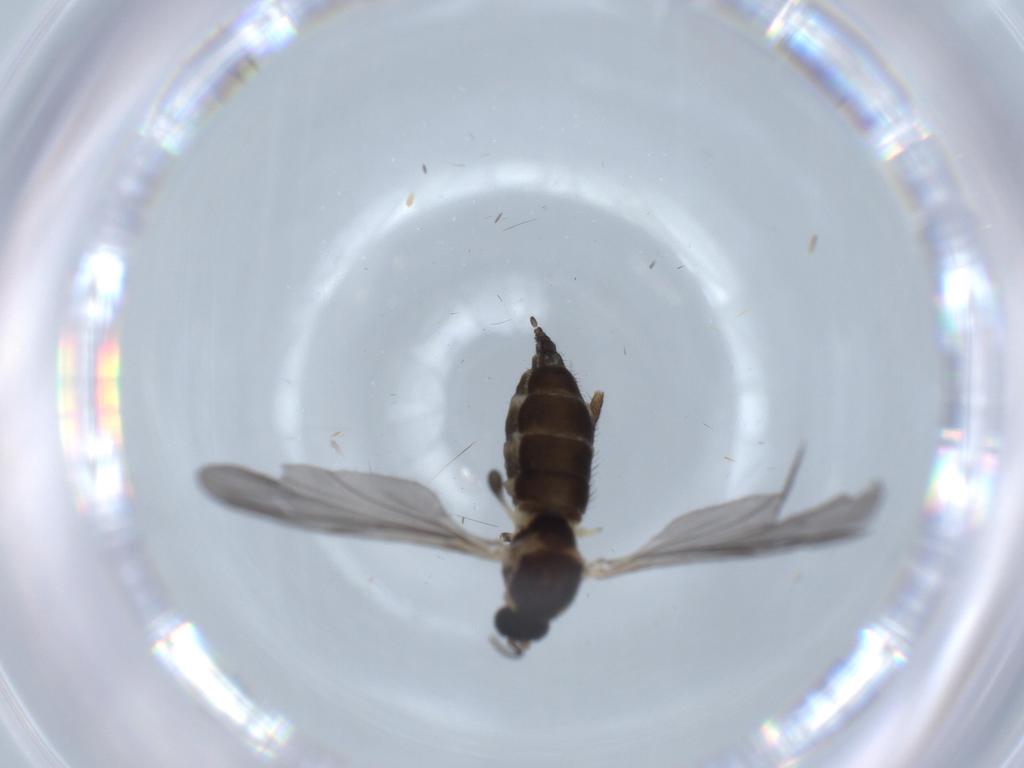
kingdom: Animalia
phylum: Arthropoda
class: Insecta
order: Diptera
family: Sciaridae
